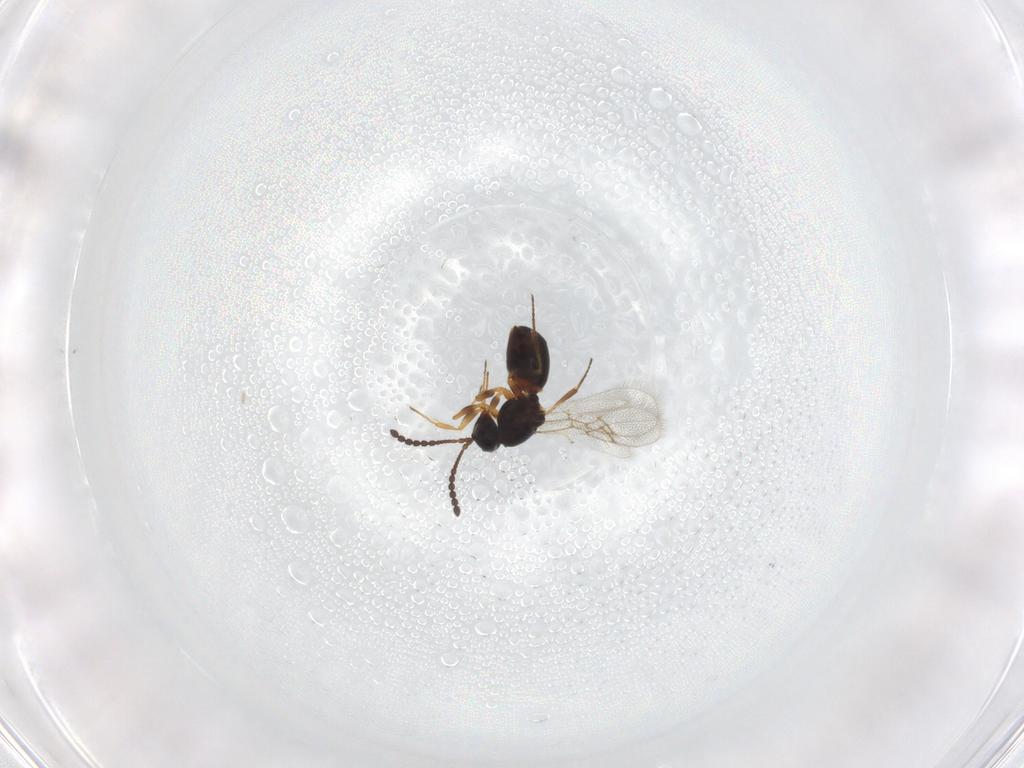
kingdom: Animalia
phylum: Arthropoda
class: Insecta
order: Hymenoptera
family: Figitidae
